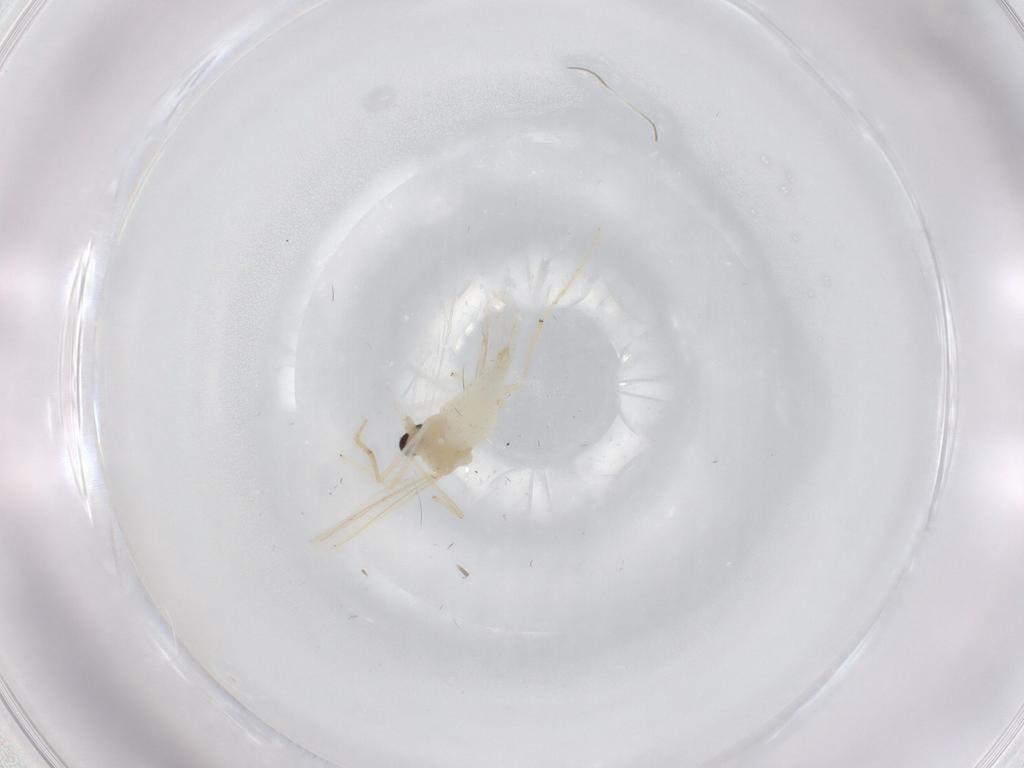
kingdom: Animalia
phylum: Arthropoda
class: Insecta
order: Diptera
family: Chironomidae
